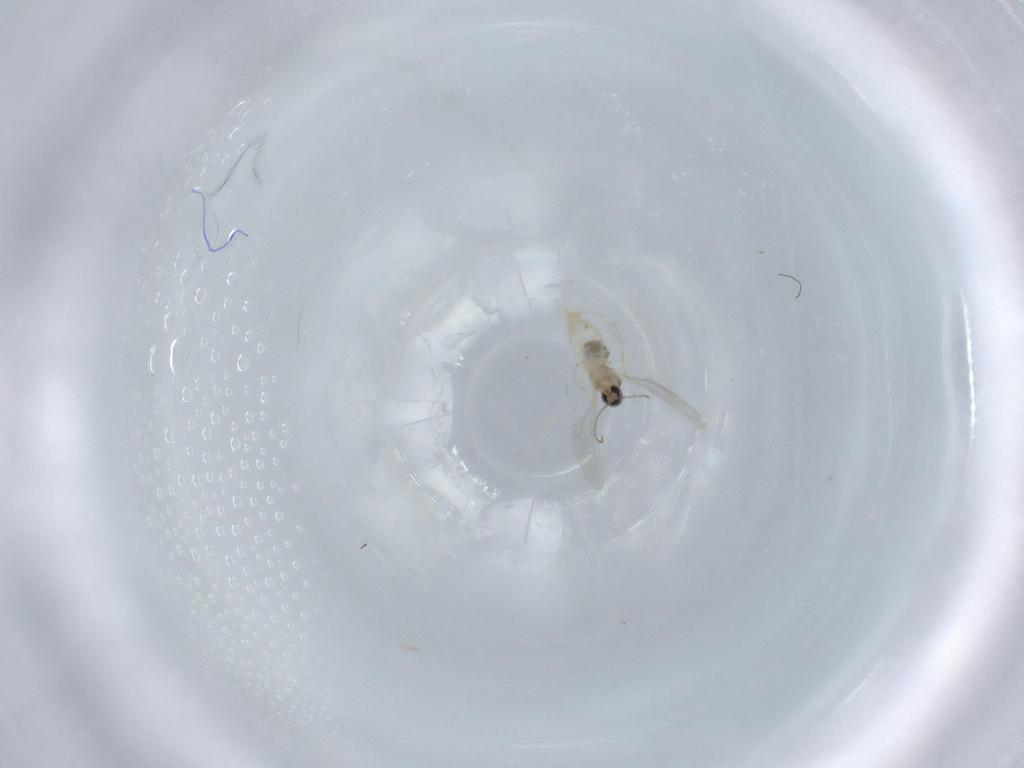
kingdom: Animalia
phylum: Arthropoda
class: Insecta
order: Diptera
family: Cecidomyiidae
